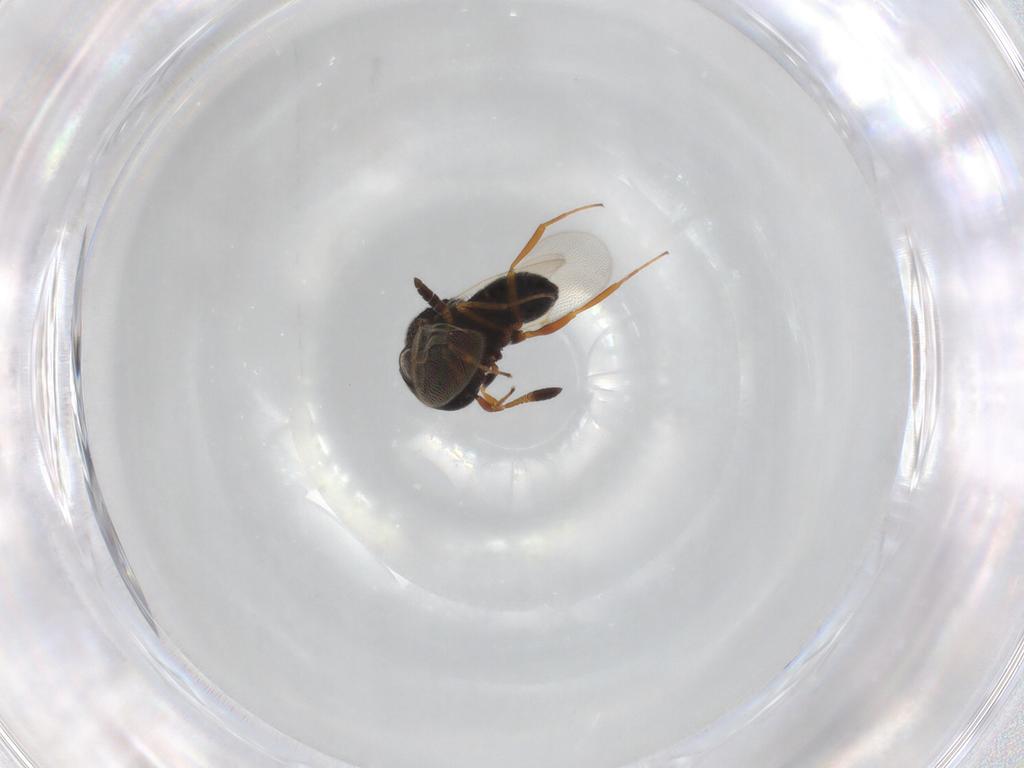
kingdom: Animalia
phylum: Arthropoda
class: Insecta
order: Hymenoptera
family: Scelionidae
